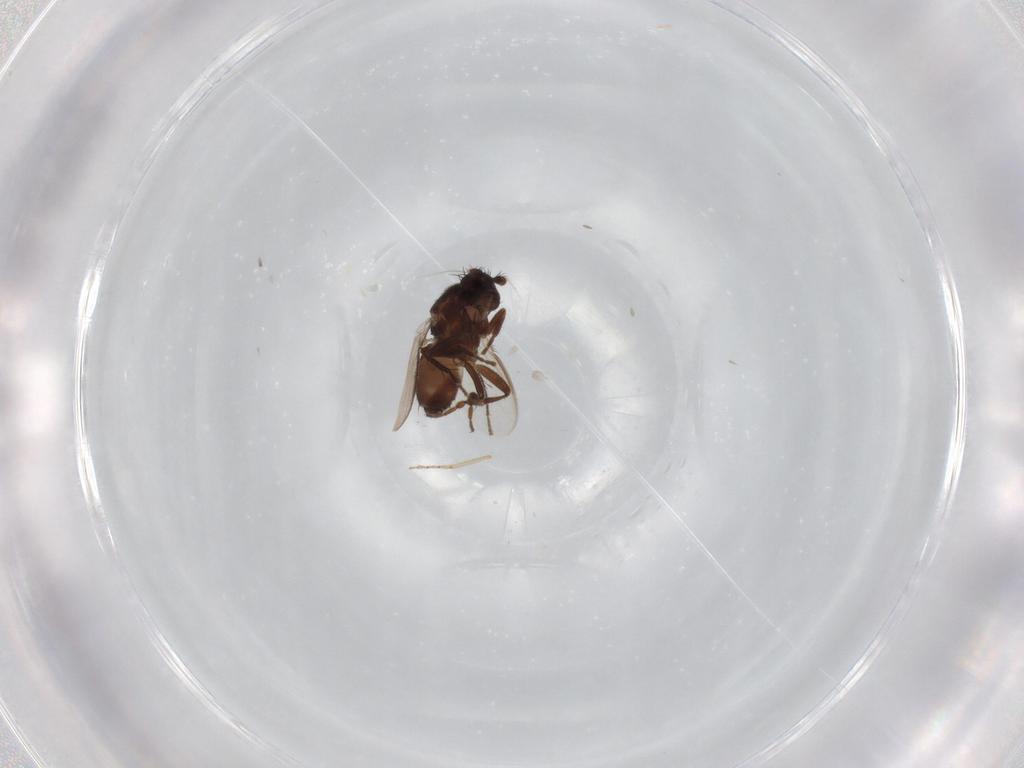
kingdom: Animalia
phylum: Arthropoda
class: Insecta
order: Diptera
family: Sphaeroceridae
